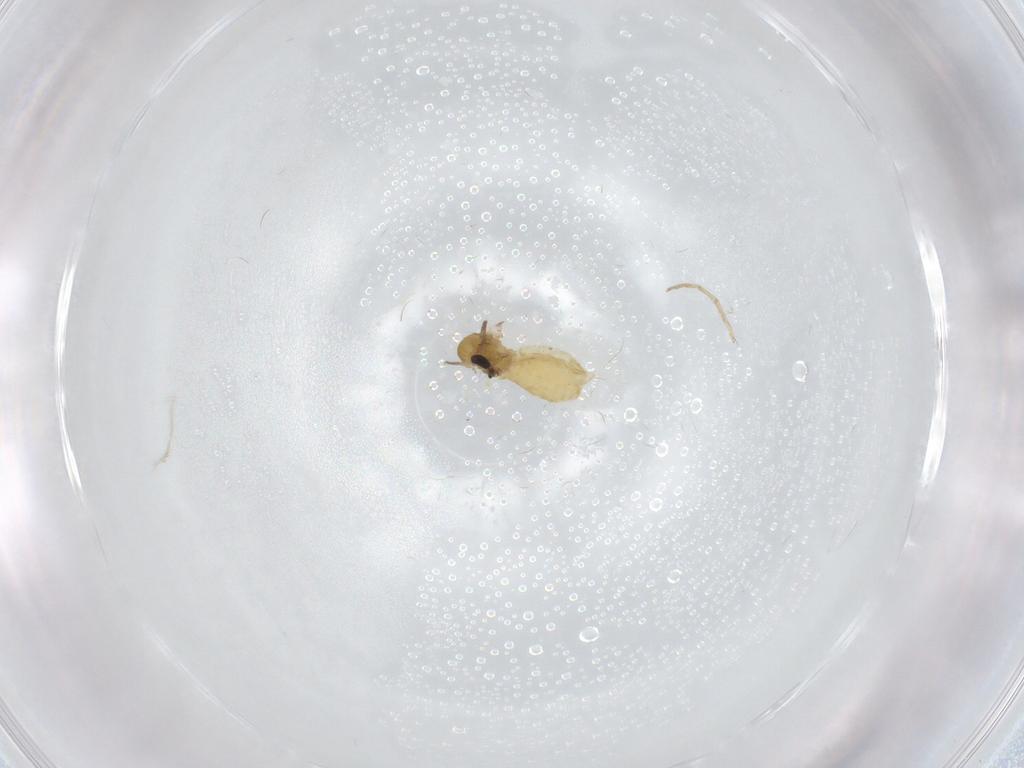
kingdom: Animalia
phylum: Arthropoda
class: Insecta
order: Diptera
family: Chironomidae
